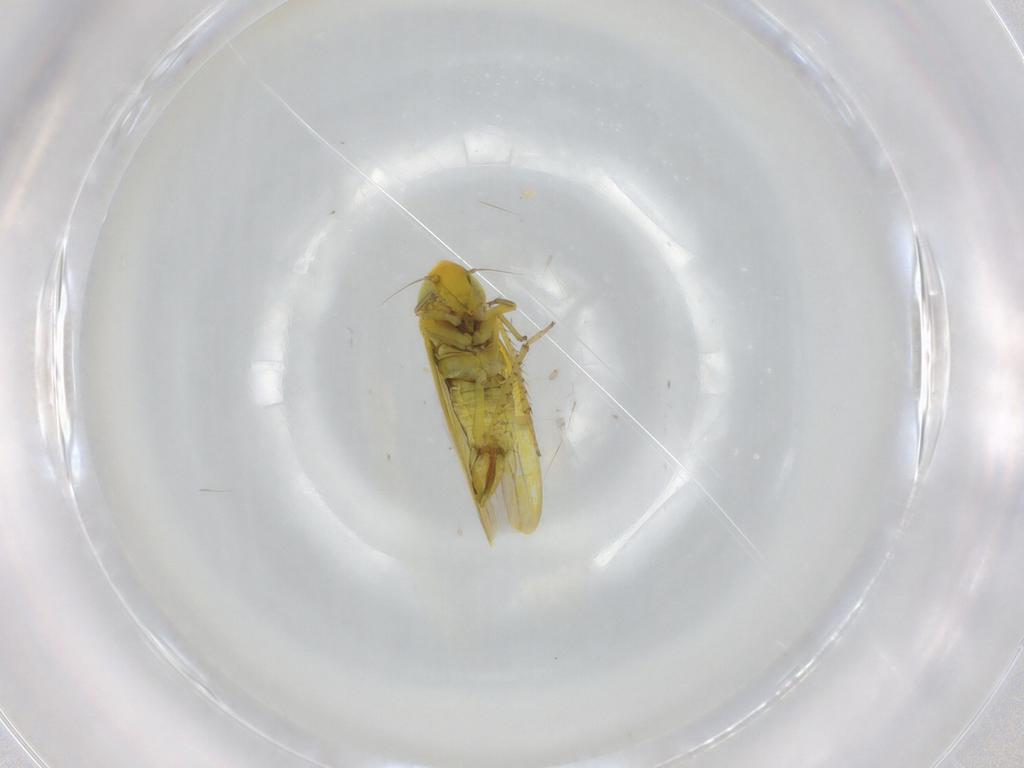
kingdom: Animalia
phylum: Arthropoda
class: Insecta
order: Hemiptera
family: Cicadellidae
